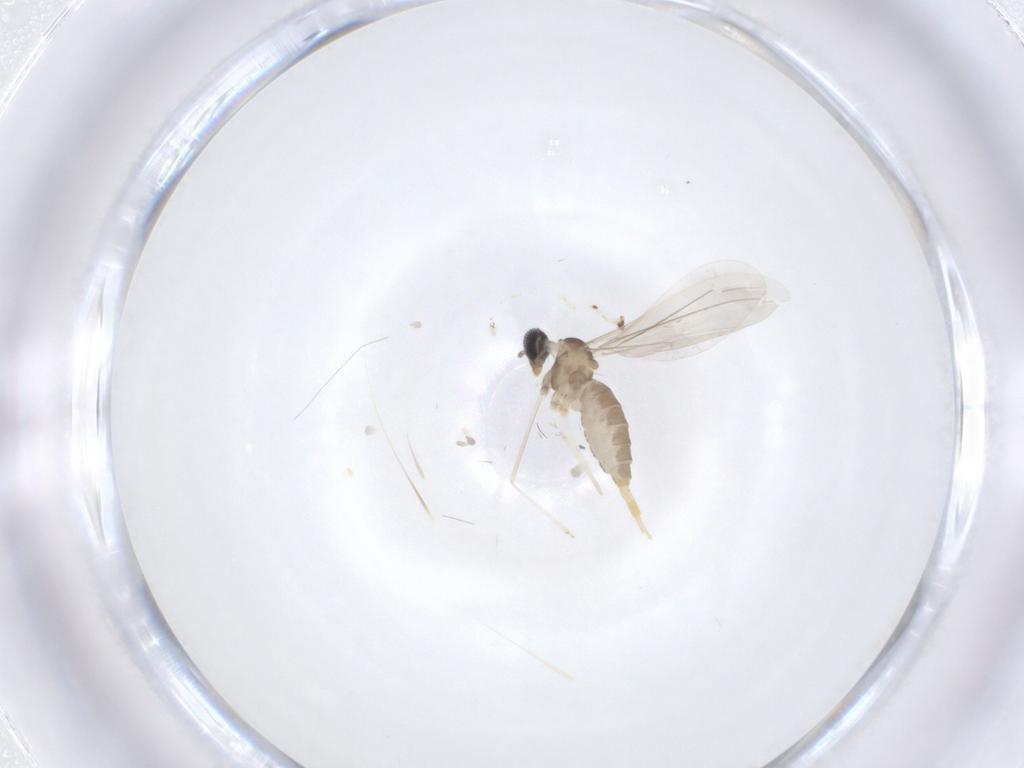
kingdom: Animalia
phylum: Arthropoda
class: Insecta
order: Diptera
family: Cecidomyiidae
